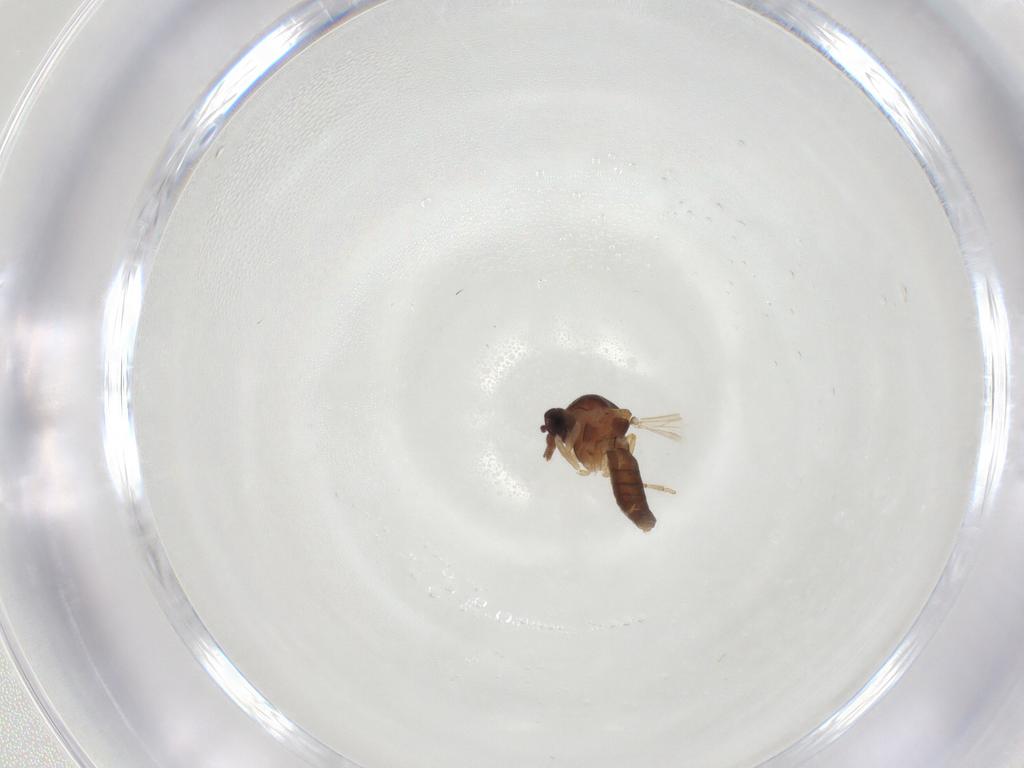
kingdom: Animalia
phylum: Arthropoda
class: Insecta
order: Diptera
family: Ceratopogonidae
